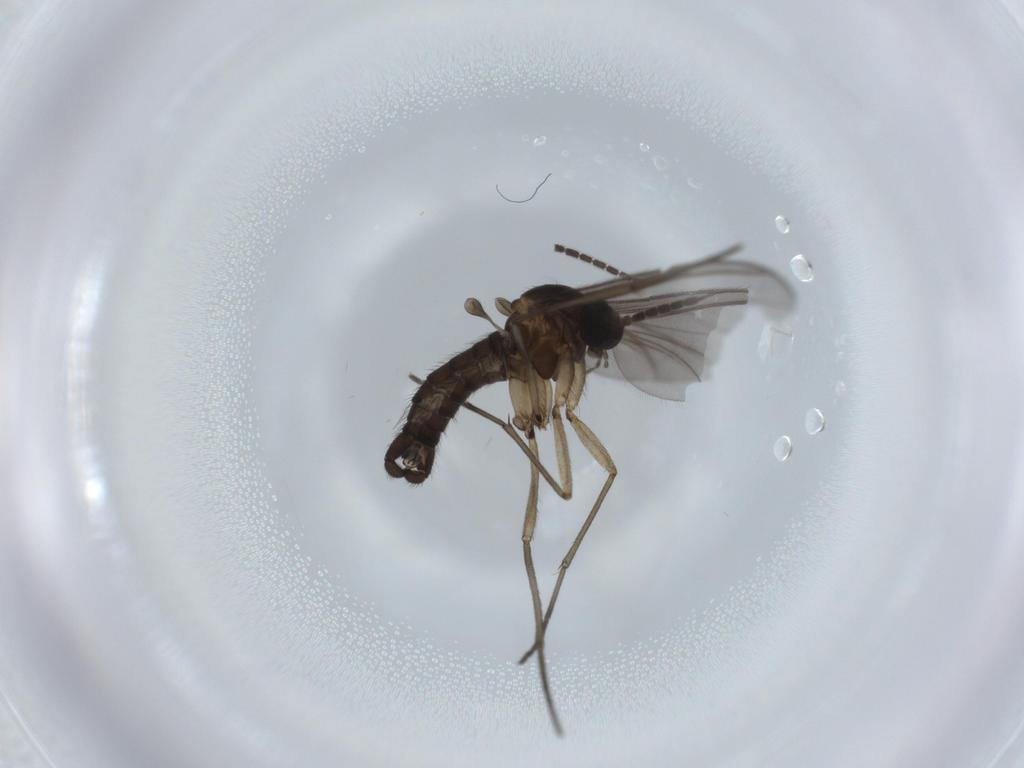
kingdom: Animalia
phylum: Arthropoda
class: Insecta
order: Diptera
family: Sciaridae
